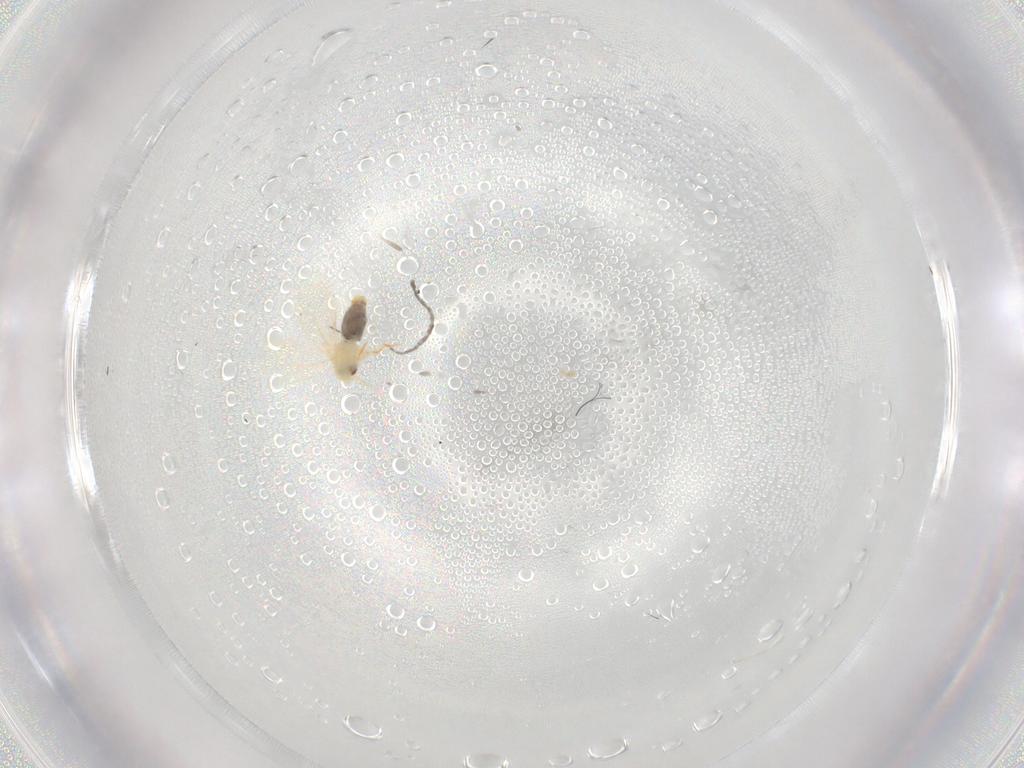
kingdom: Animalia
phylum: Arthropoda
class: Insecta
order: Hemiptera
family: Aleyrodidae
